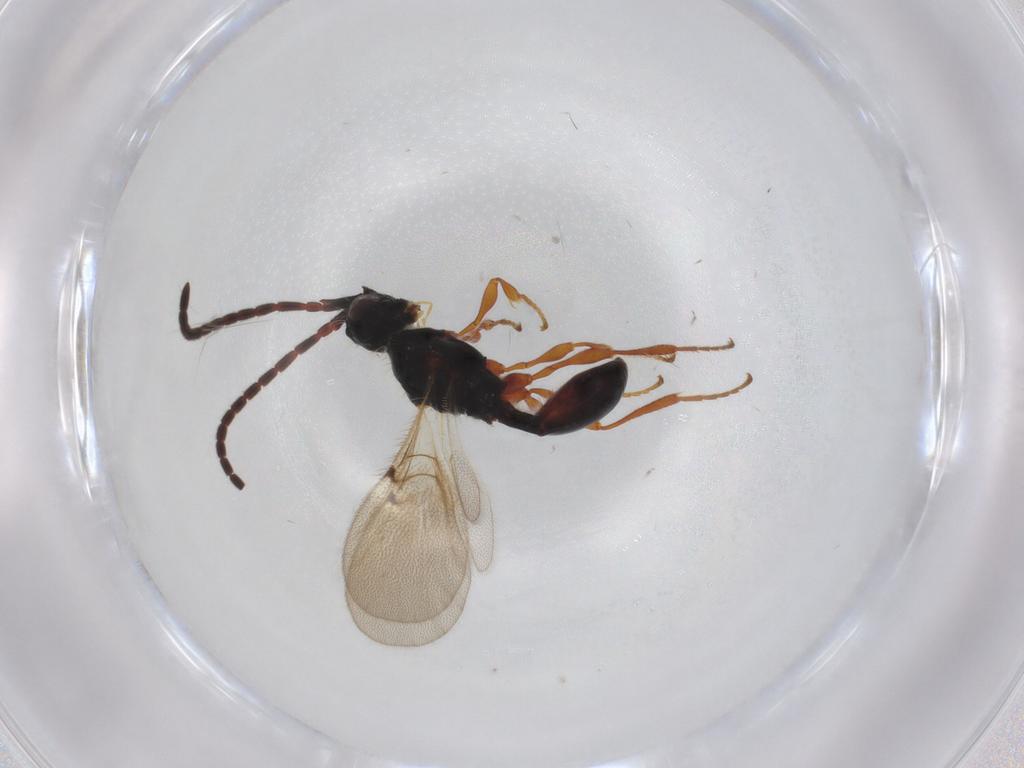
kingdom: Animalia
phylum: Arthropoda
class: Insecta
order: Hymenoptera
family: Diapriidae
